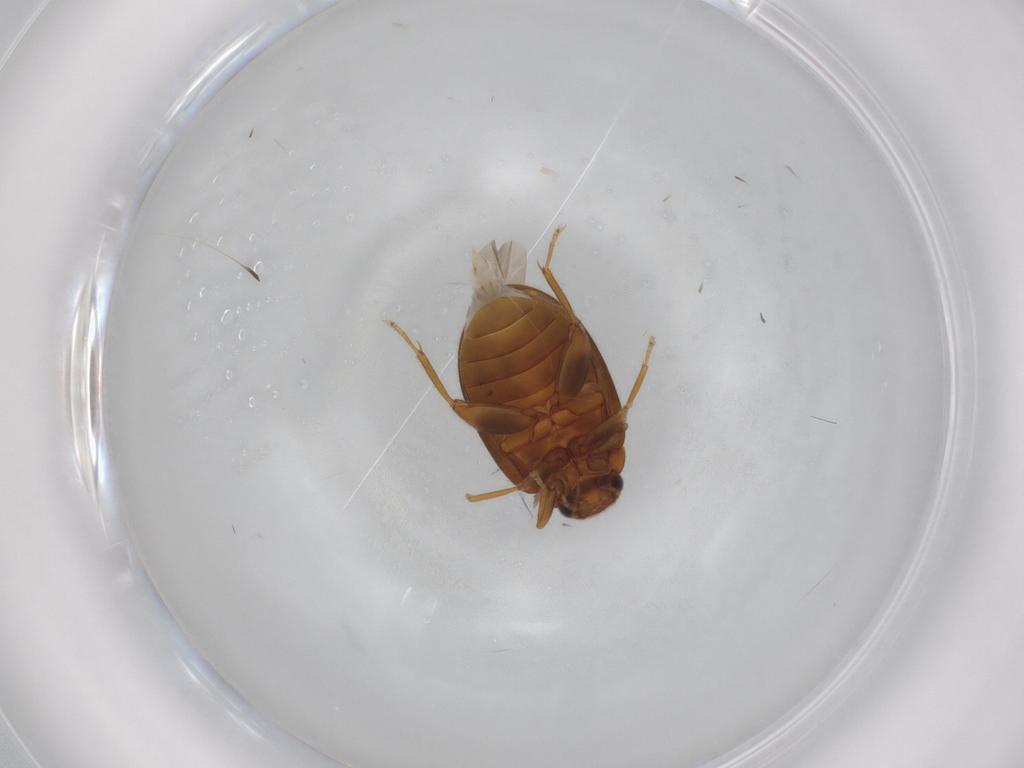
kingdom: Animalia
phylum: Arthropoda
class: Insecta
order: Coleoptera
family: Scirtidae
